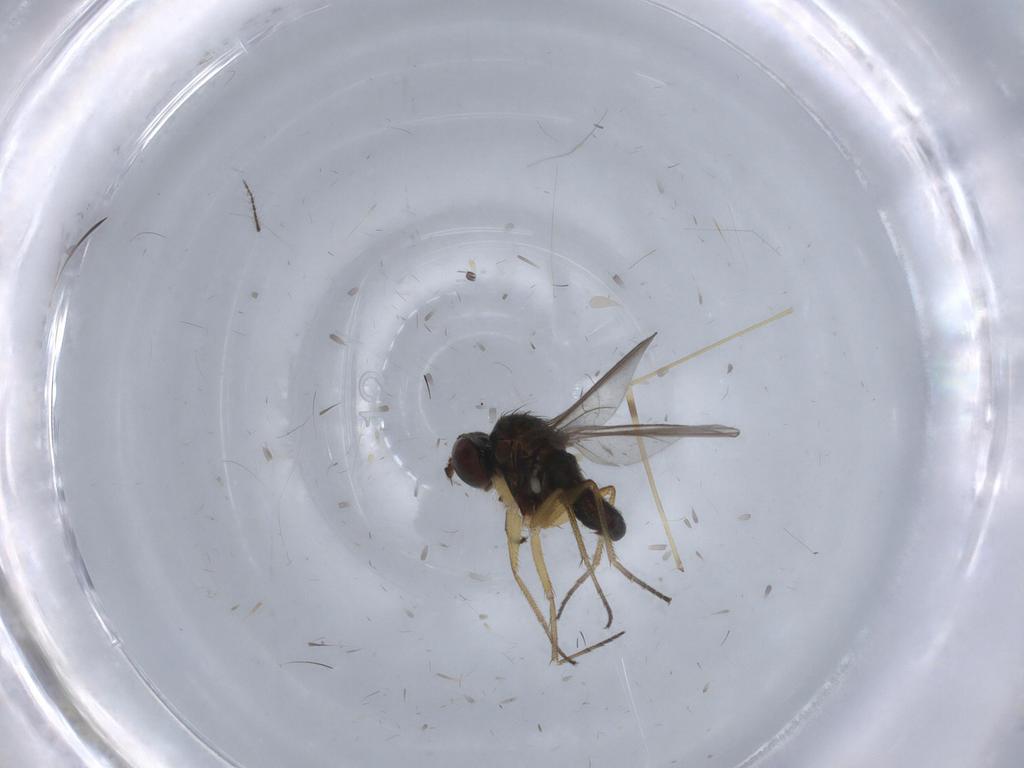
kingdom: Animalia
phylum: Arthropoda
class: Insecta
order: Diptera
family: Limoniidae
